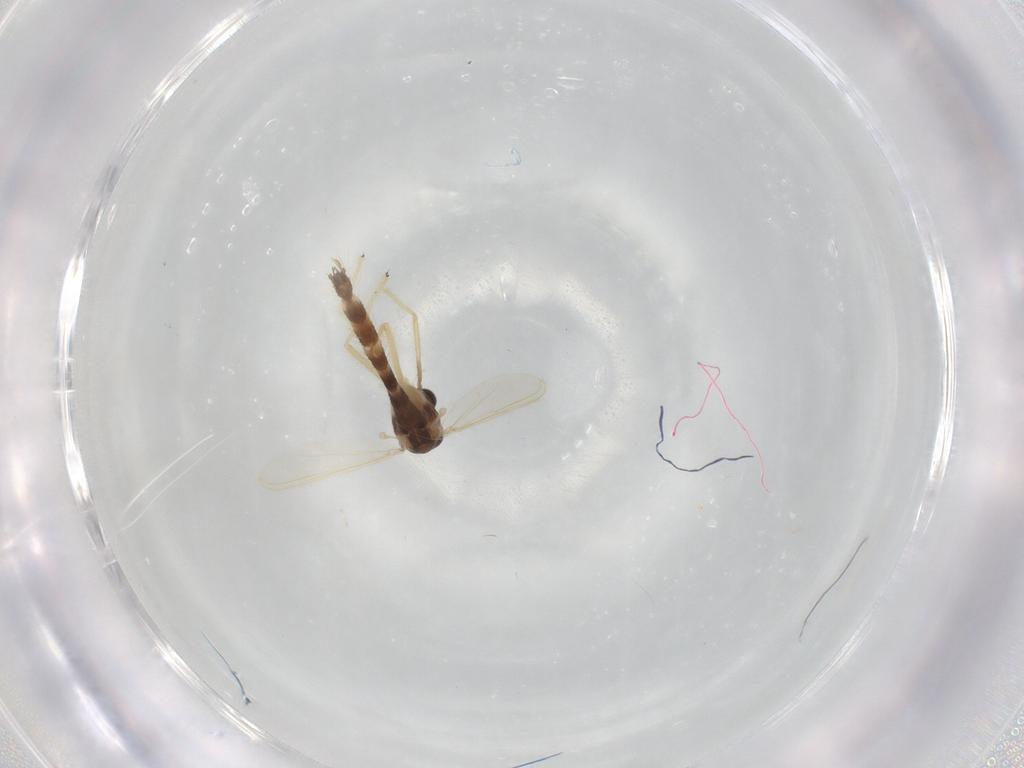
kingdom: Animalia
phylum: Arthropoda
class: Insecta
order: Diptera
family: Chironomidae
